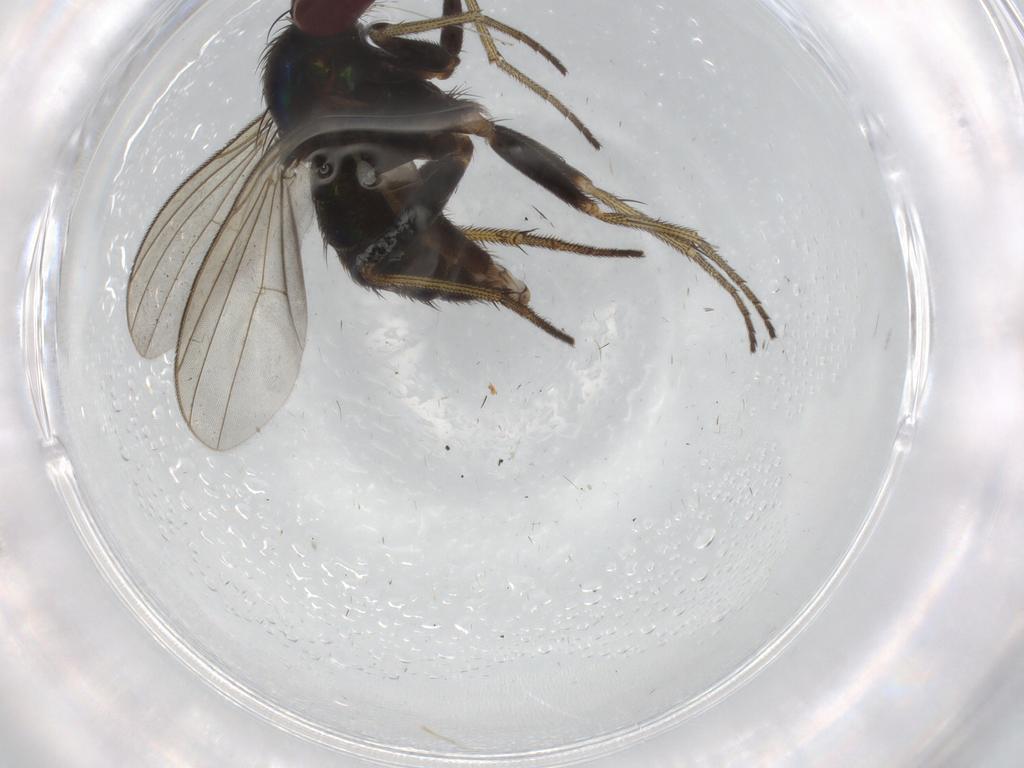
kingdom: Animalia
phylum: Arthropoda
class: Insecta
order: Diptera
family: Dolichopodidae
